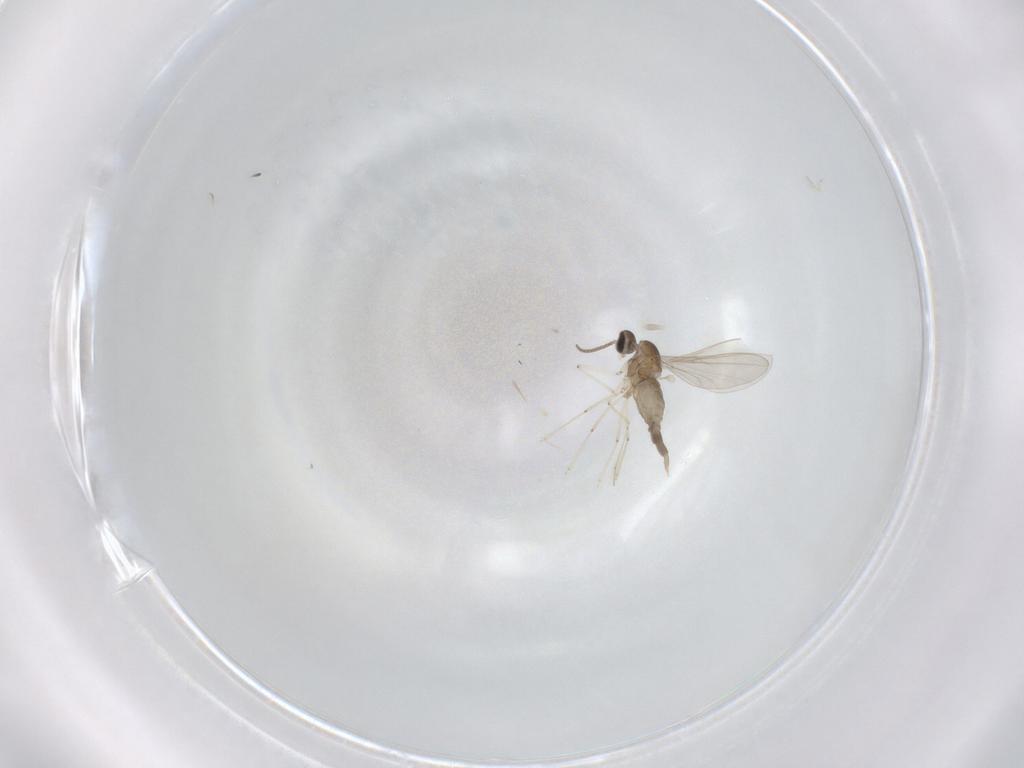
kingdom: Animalia
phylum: Arthropoda
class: Insecta
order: Diptera
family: Cecidomyiidae
